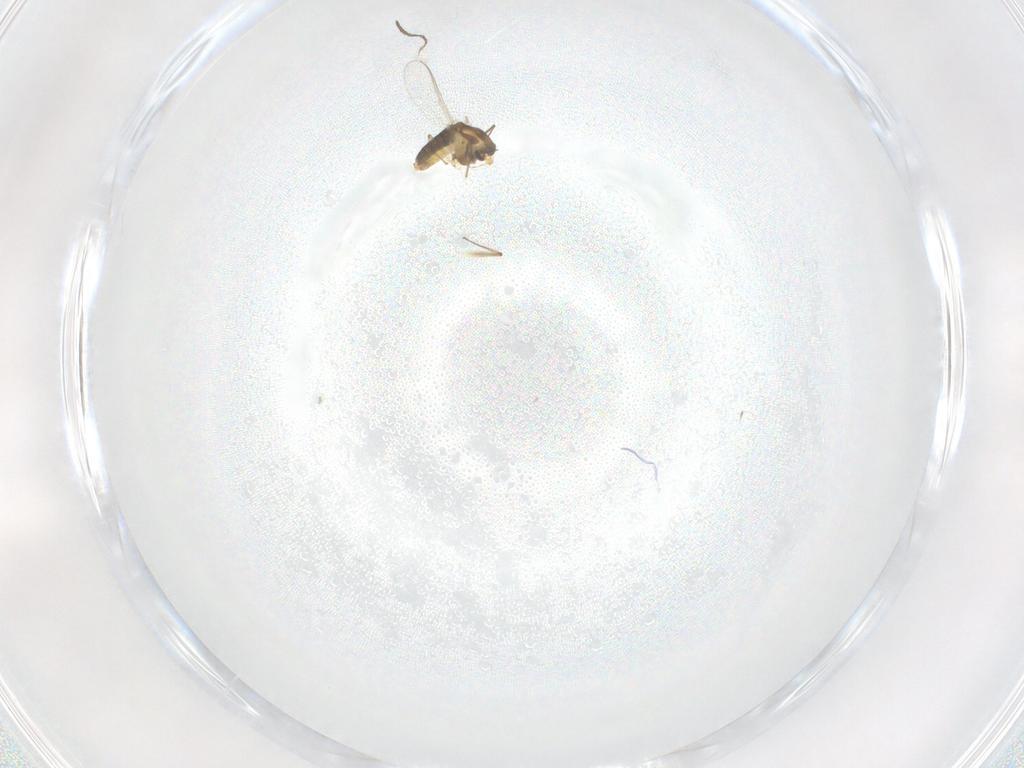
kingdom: Animalia
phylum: Arthropoda
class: Insecta
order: Diptera
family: Chironomidae
